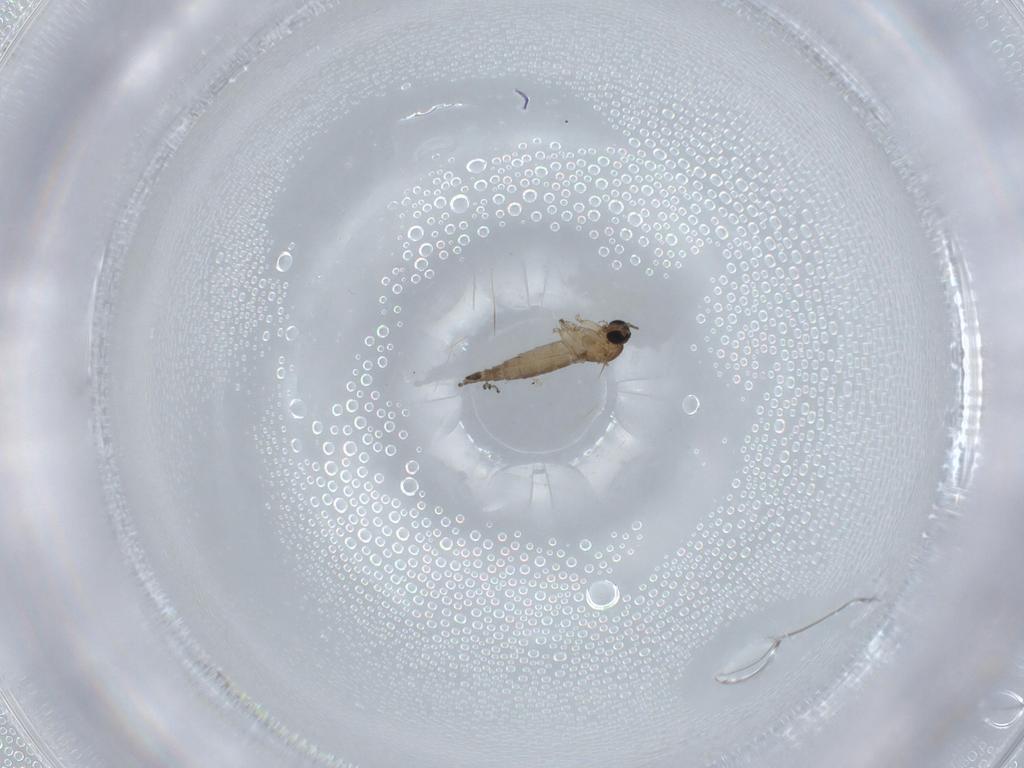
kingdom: Animalia
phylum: Arthropoda
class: Insecta
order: Diptera
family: Sciaridae
